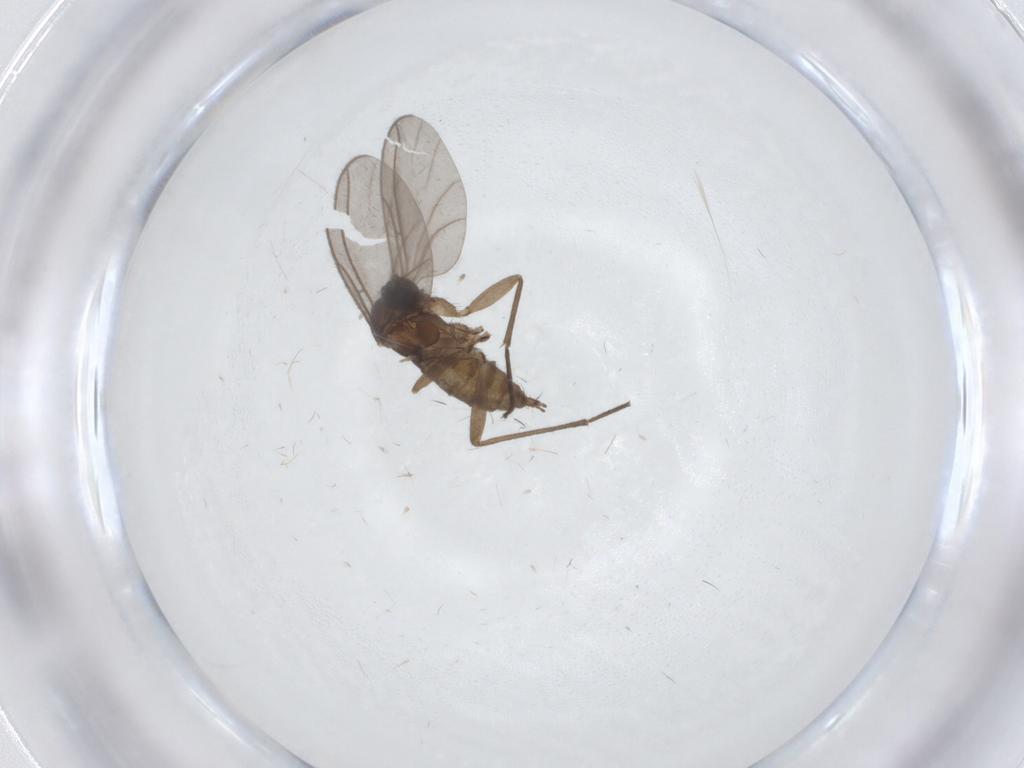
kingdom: Animalia
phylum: Arthropoda
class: Insecta
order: Diptera
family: Sciaridae
